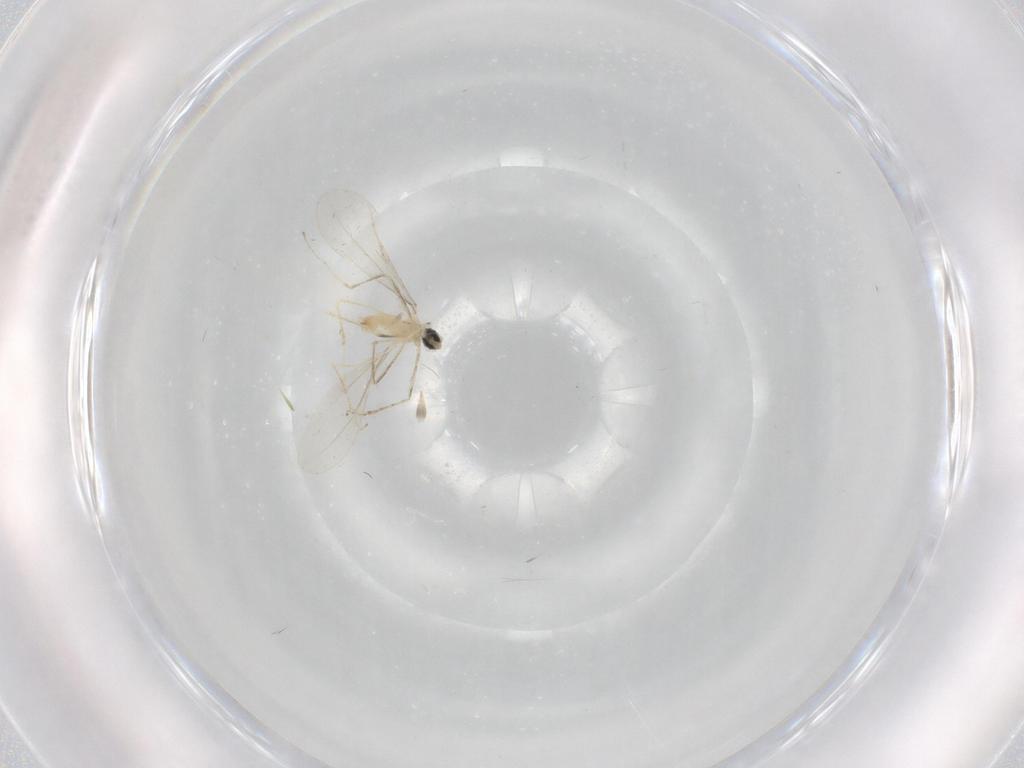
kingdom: Animalia
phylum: Arthropoda
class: Insecta
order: Diptera
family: Cecidomyiidae
